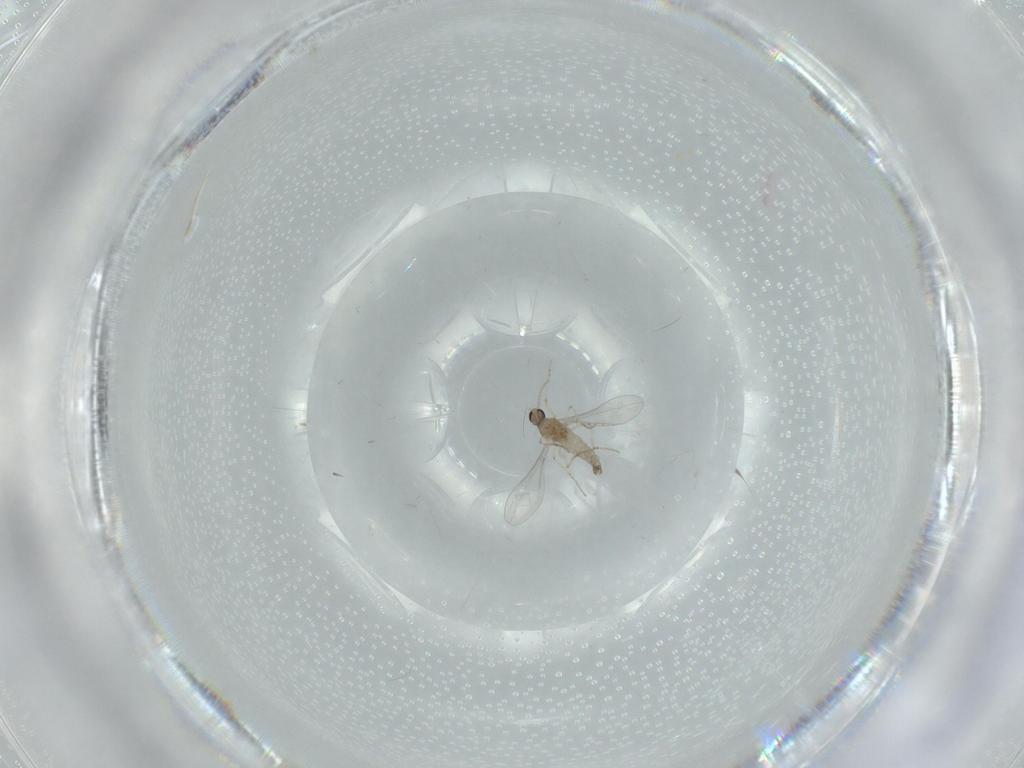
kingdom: Animalia
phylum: Arthropoda
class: Insecta
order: Diptera
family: Cecidomyiidae
